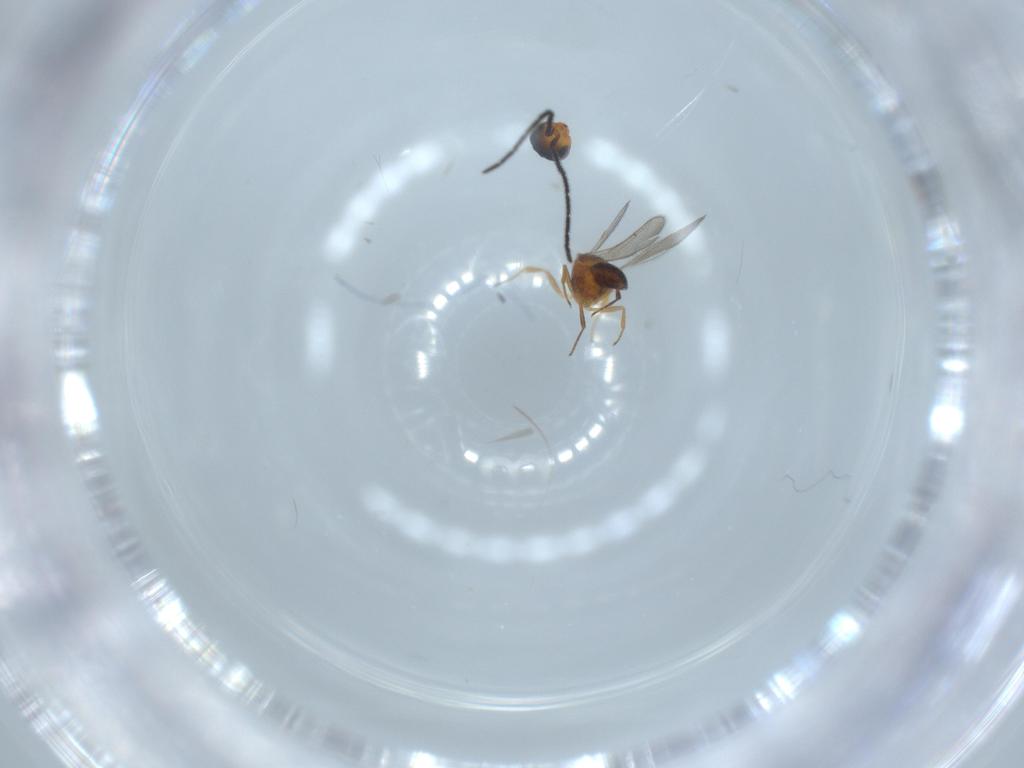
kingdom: Animalia
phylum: Arthropoda
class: Insecta
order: Hymenoptera
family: Scelionidae
